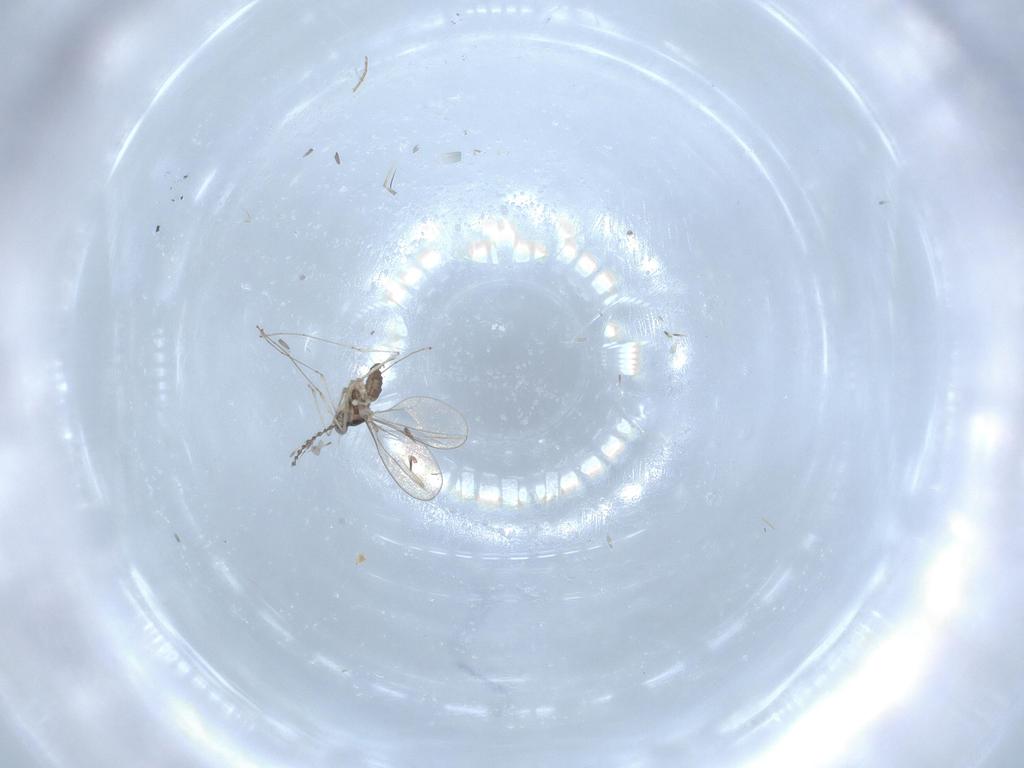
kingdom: Animalia
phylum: Arthropoda
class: Insecta
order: Diptera
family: Cecidomyiidae
